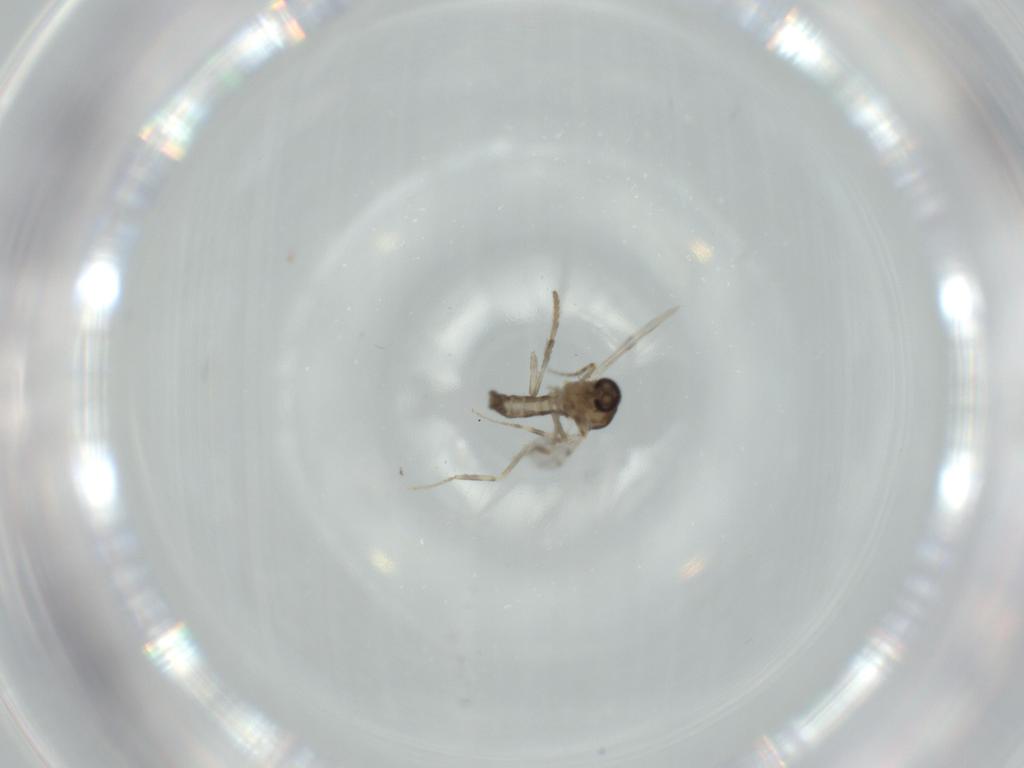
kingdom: Animalia
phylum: Arthropoda
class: Insecta
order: Diptera
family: Ceratopogonidae
